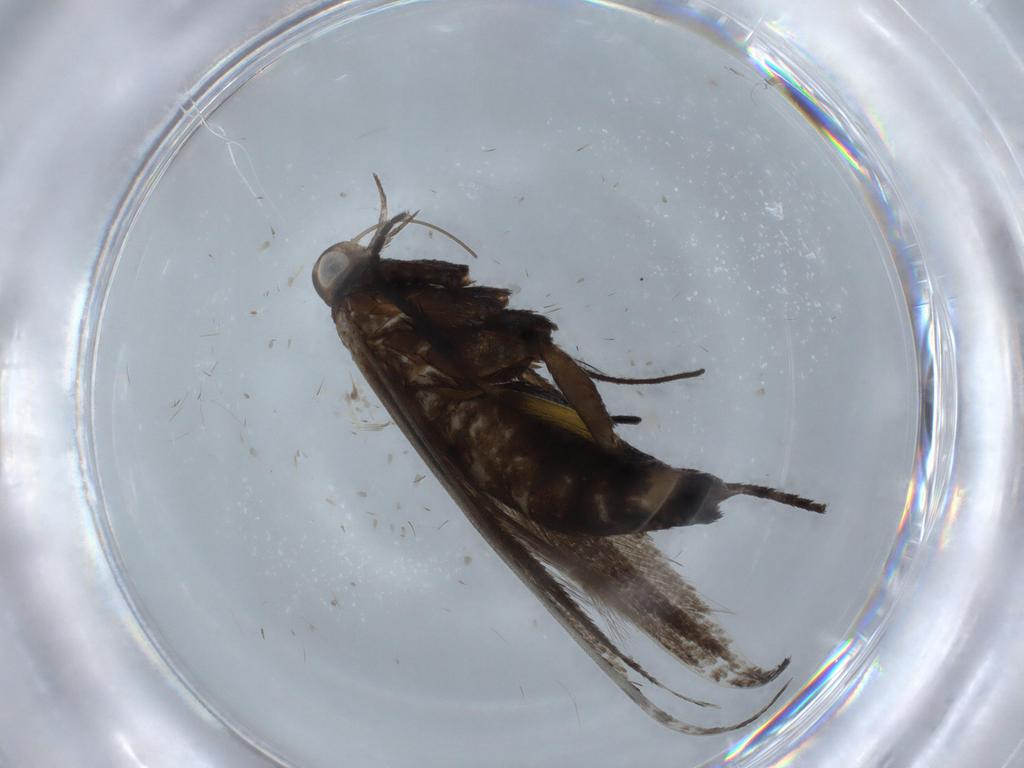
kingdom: Animalia
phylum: Arthropoda
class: Insecta
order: Lepidoptera
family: Coleophoridae
